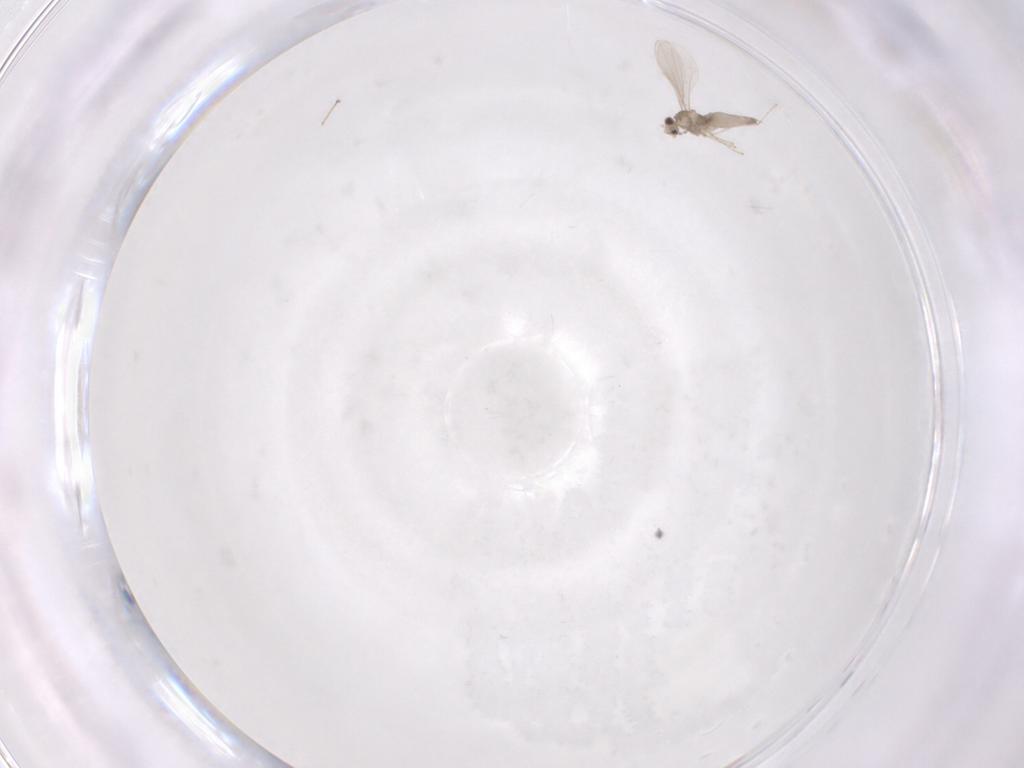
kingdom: Animalia
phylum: Arthropoda
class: Insecta
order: Diptera
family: Chironomidae
